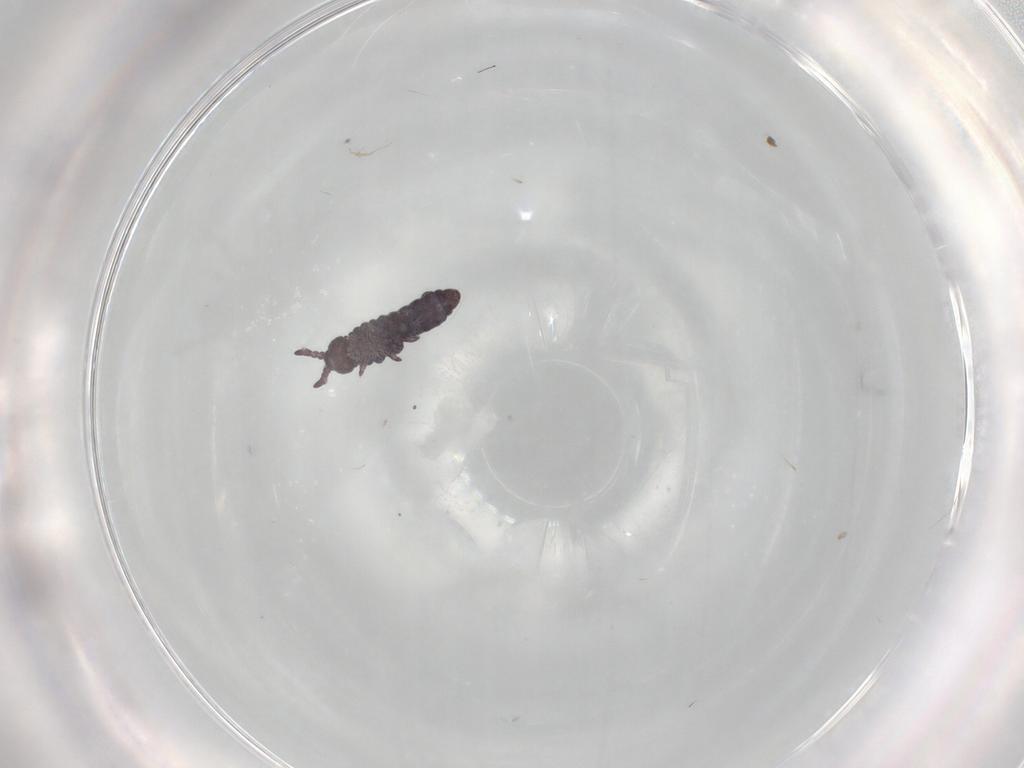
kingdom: Animalia
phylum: Arthropoda
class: Collembola
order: Poduromorpha
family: Hypogastruridae
